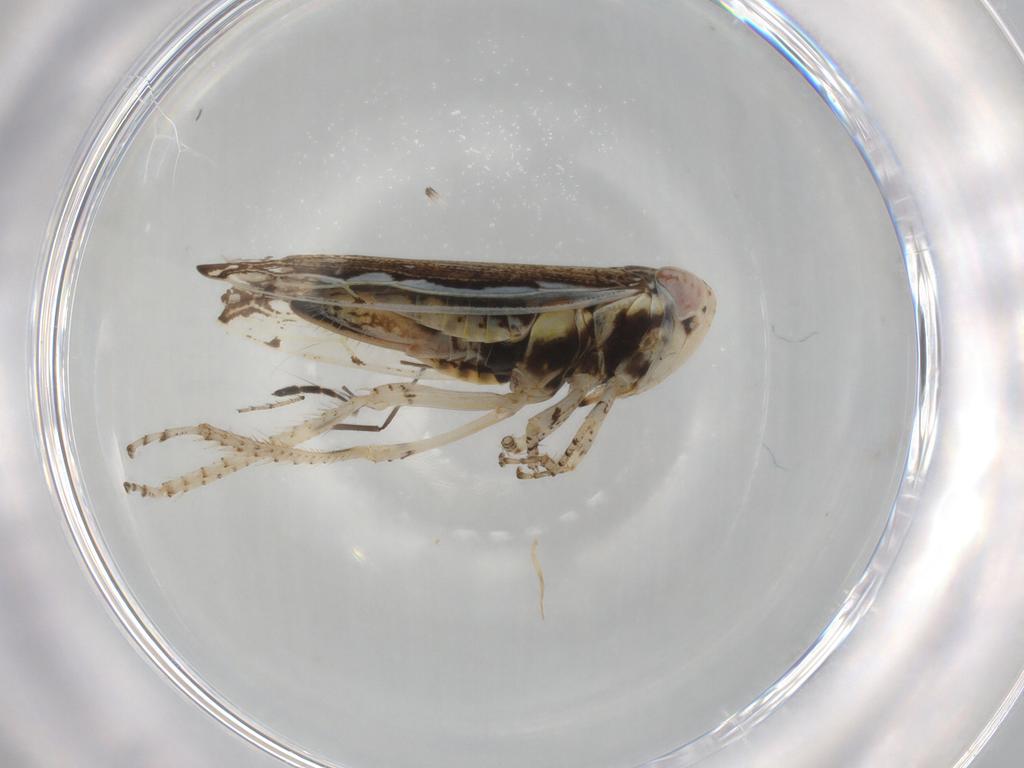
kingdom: Animalia
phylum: Arthropoda
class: Insecta
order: Hemiptera
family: Cicadellidae
